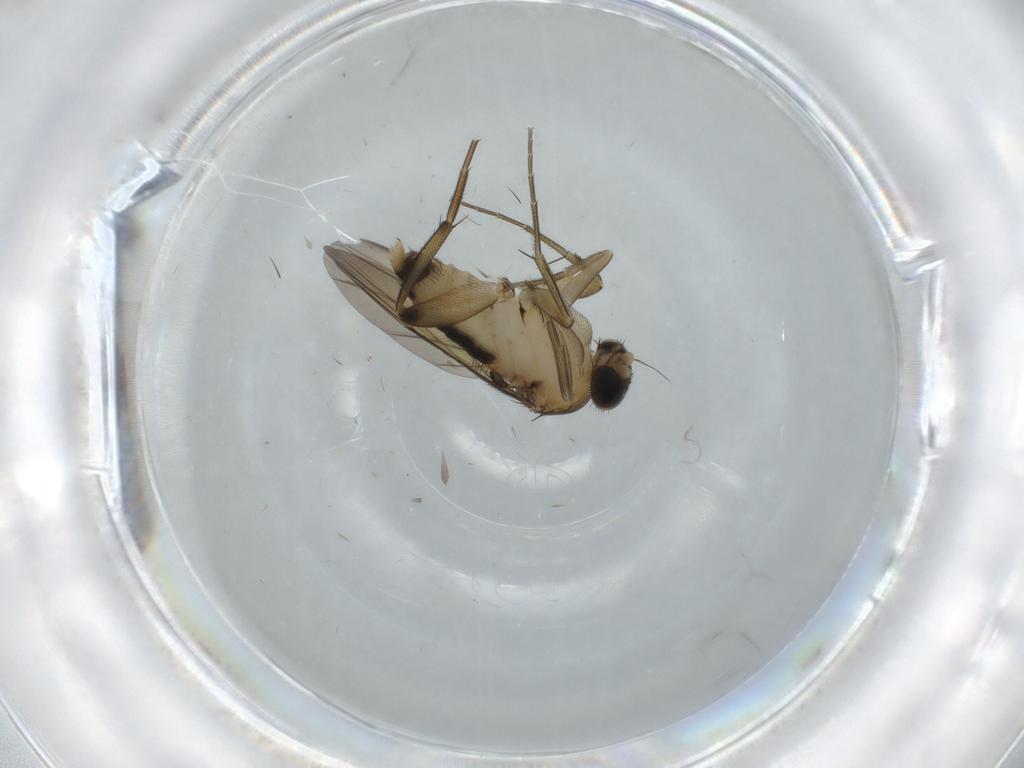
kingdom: Animalia
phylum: Arthropoda
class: Insecta
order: Diptera
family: Phoridae
